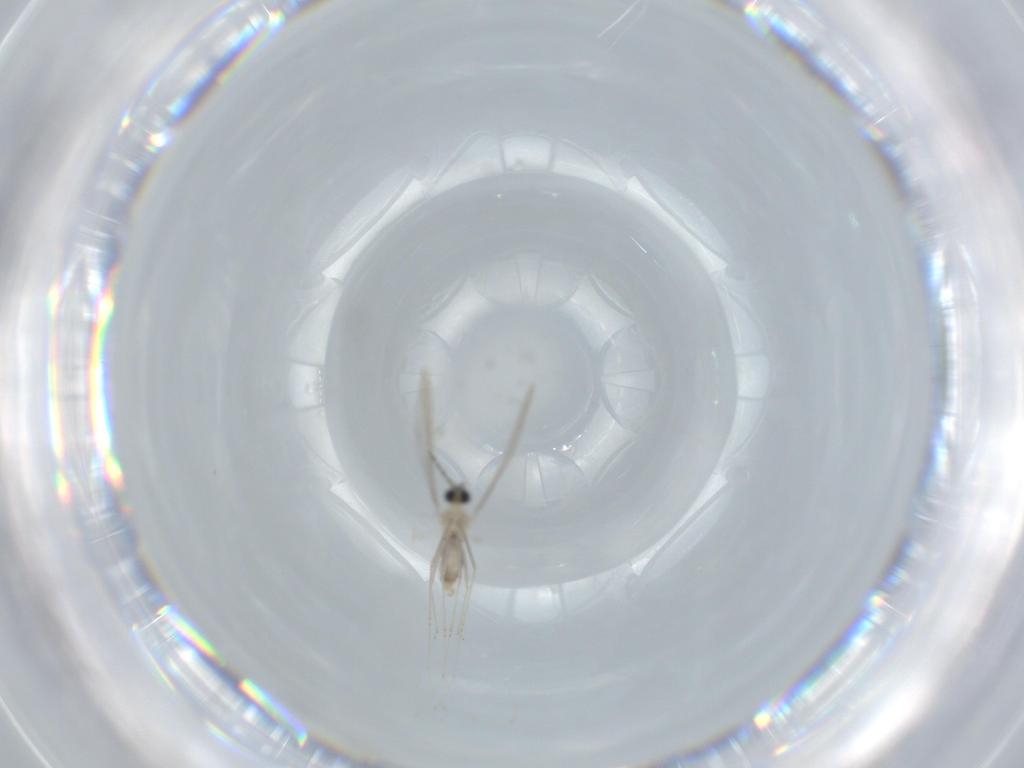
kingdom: Animalia
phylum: Arthropoda
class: Insecta
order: Diptera
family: Cecidomyiidae
